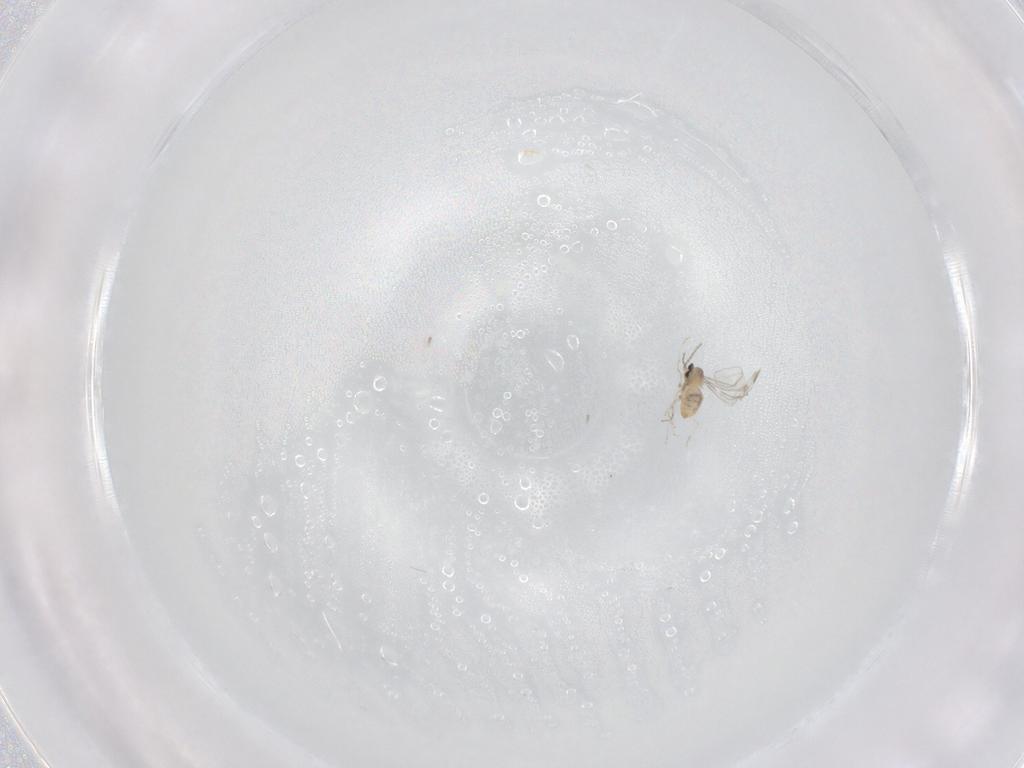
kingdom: Animalia
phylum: Arthropoda
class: Insecta
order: Diptera
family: Cecidomyiidae
